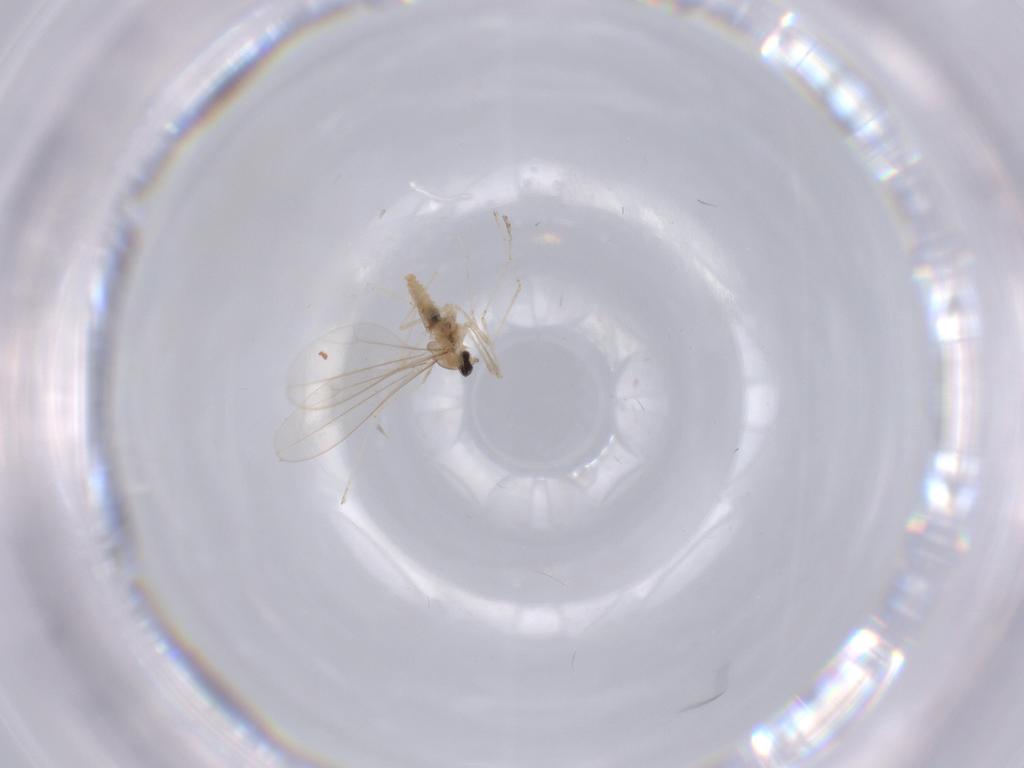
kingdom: Animalia
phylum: Arthropoda
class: Insecta
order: Diptera
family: Cecidomyiidae
